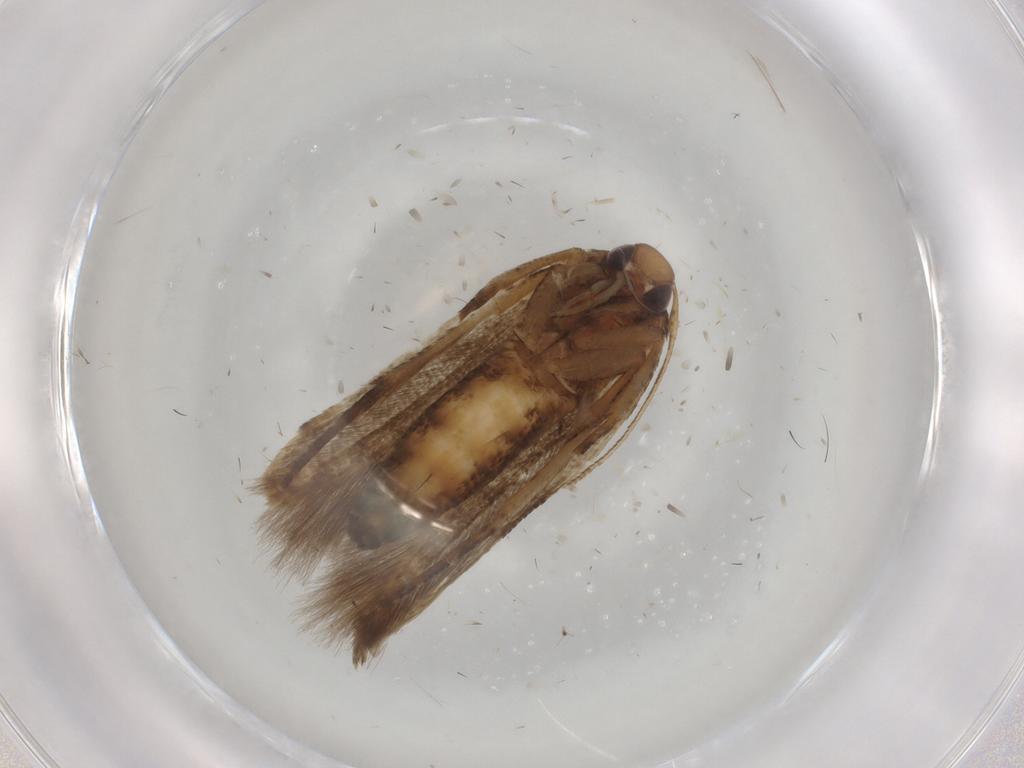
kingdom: Animalia
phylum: Arthropoda
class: Insecta
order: Lepidoptera
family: Cosmopterigidae
